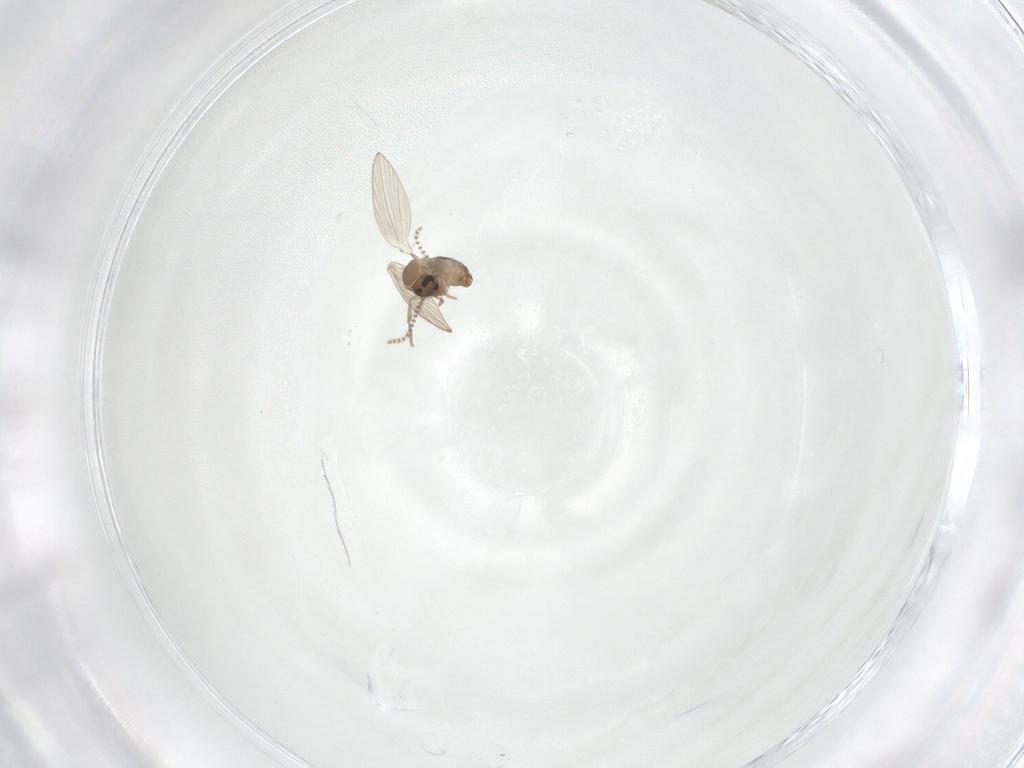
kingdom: Animalia
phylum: Arthropoda
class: Insecta
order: Diptera
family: Psychodidae
